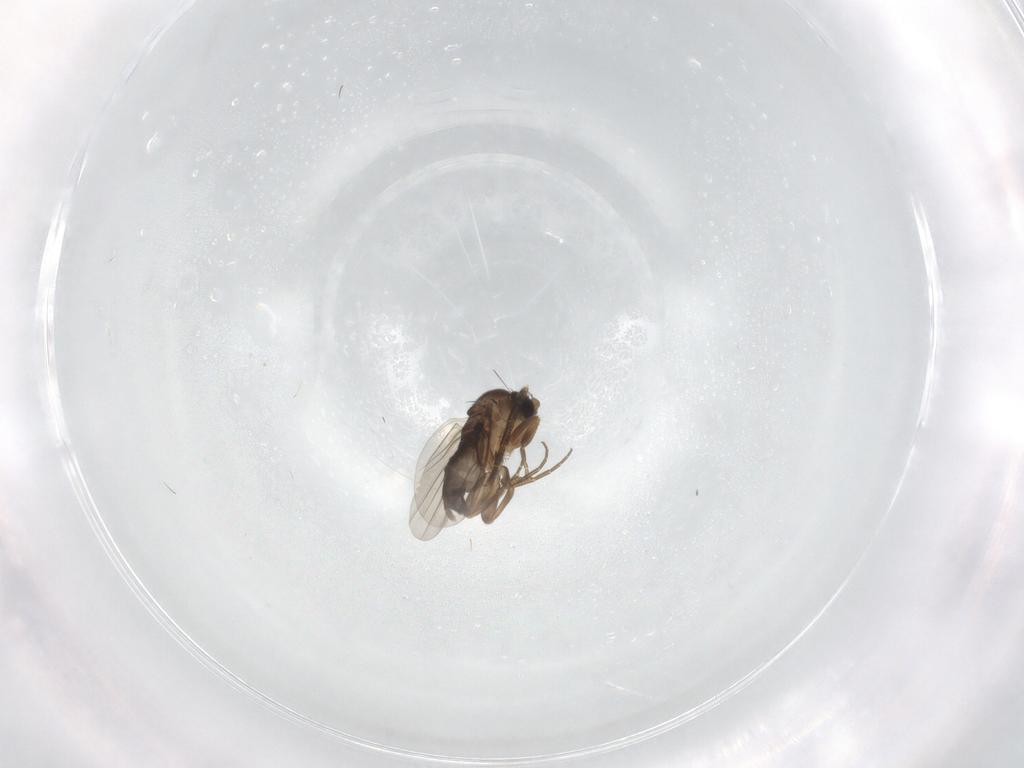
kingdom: Animalia
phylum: Arthropoda
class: Insecta
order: Diptera
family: Phoridae
